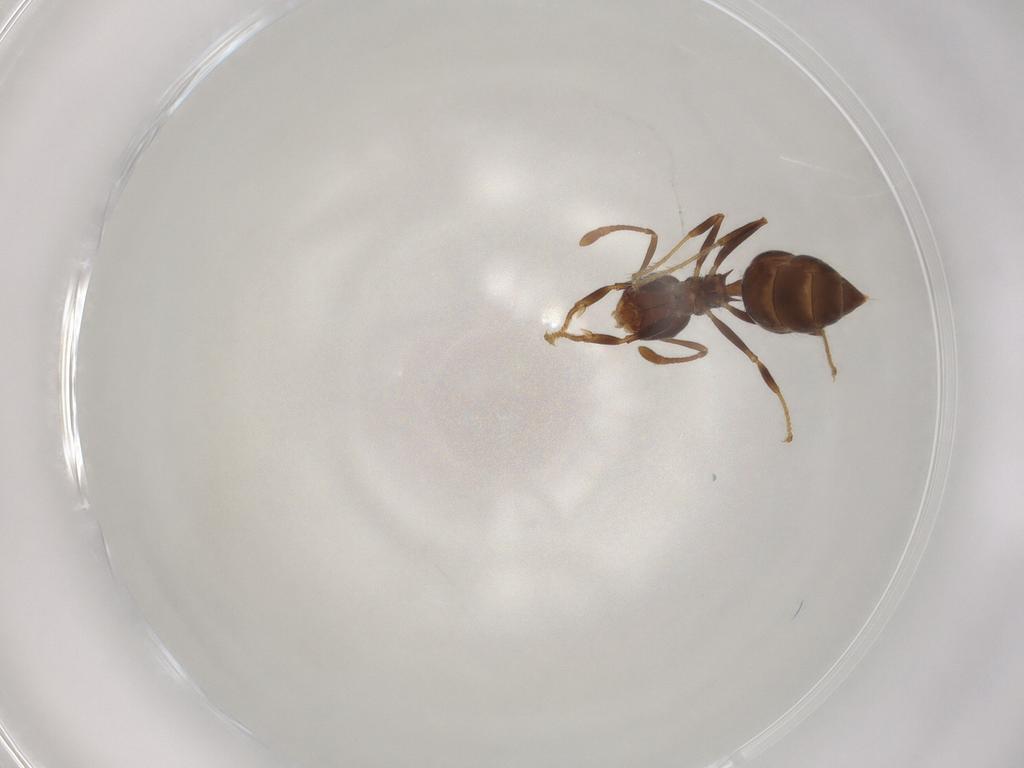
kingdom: Animalia
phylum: Arthropoda
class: Insecta
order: Hymenoptera
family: Formicidae
